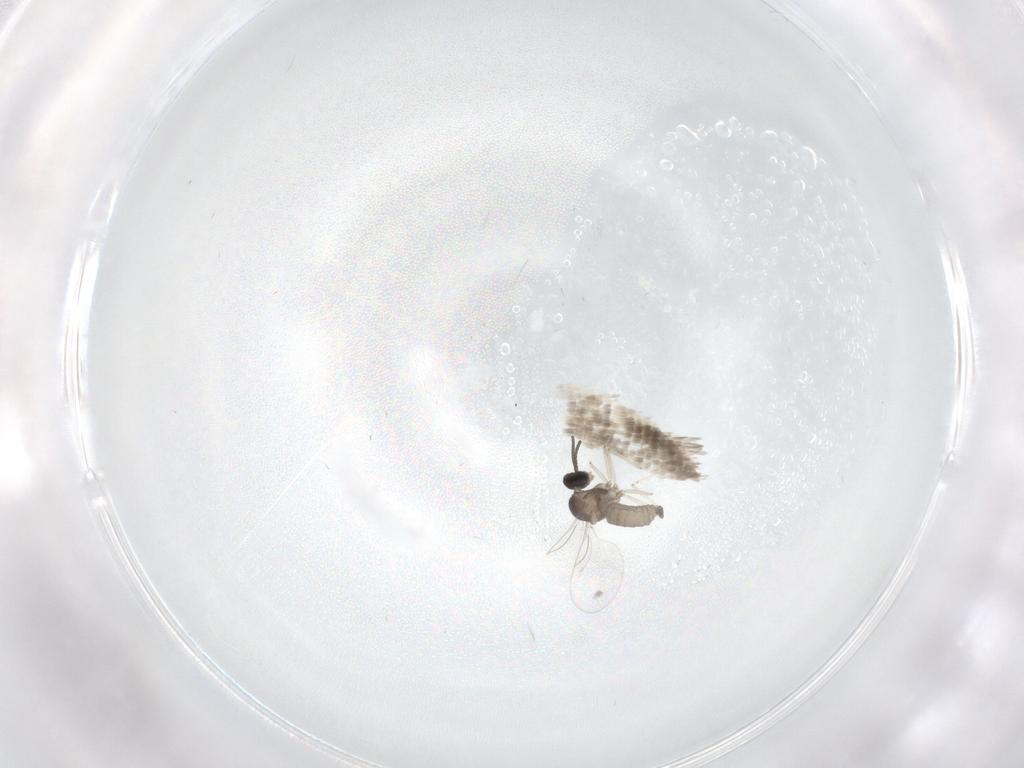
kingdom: Animalia
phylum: Arthropoda
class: Insecta
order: Diptera
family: Cecidomyiidae
